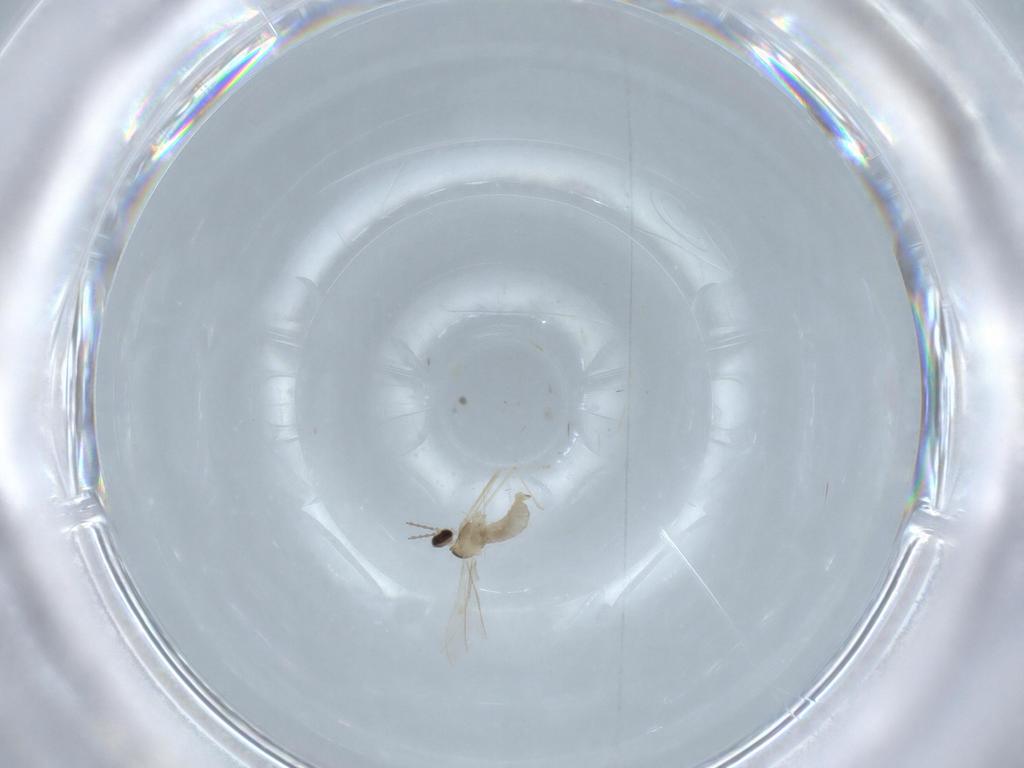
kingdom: Animalia
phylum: Arthropoda
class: Insecta
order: Diptera
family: Cecidomyiidae
